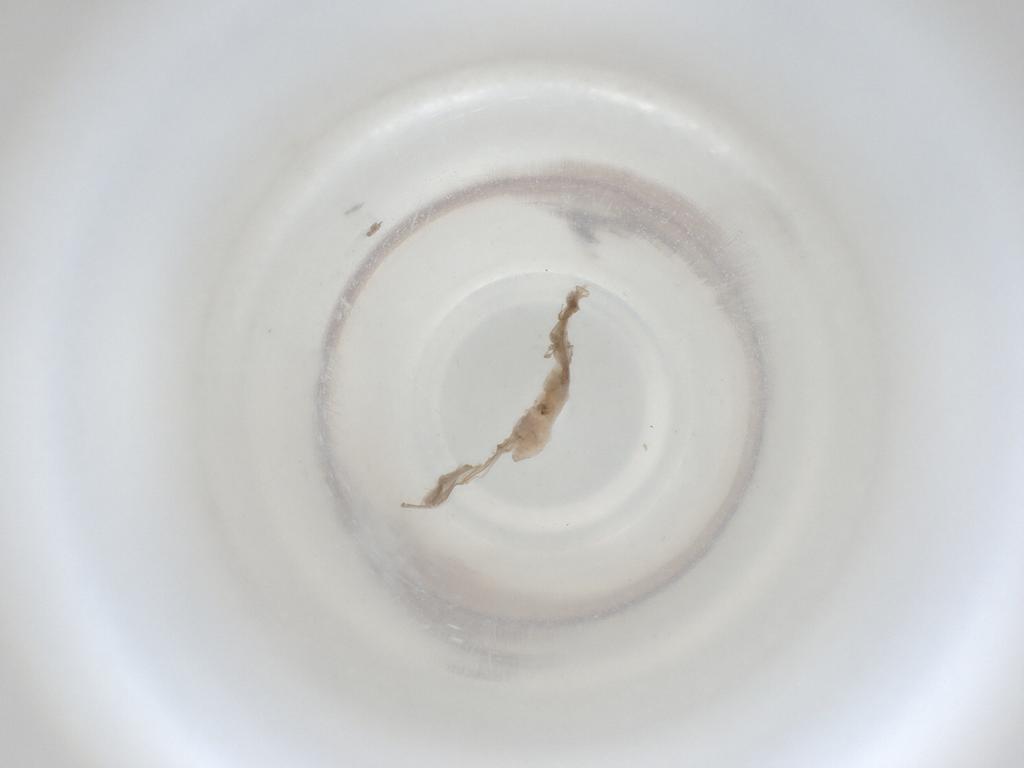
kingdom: Animalia
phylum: Arthropoda
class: Insecta
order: Diptera
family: Cecidomyiidae
